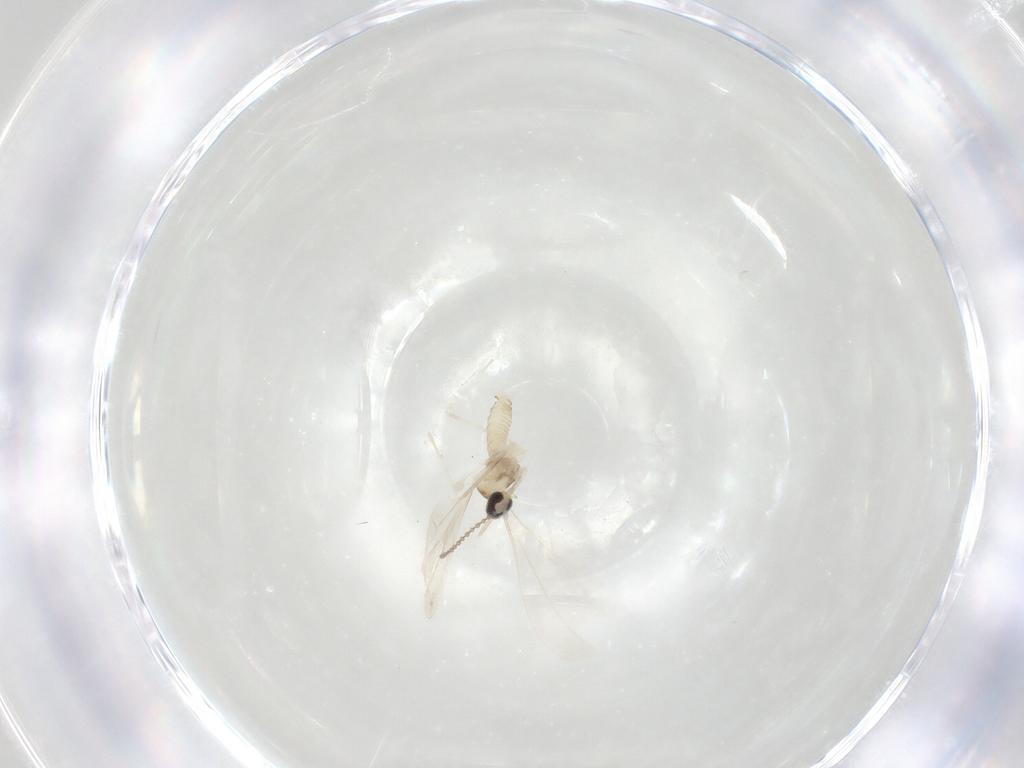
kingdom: Animalia
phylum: Arthropoda
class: Insecta
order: Diptera
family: Cecidomyiidae
